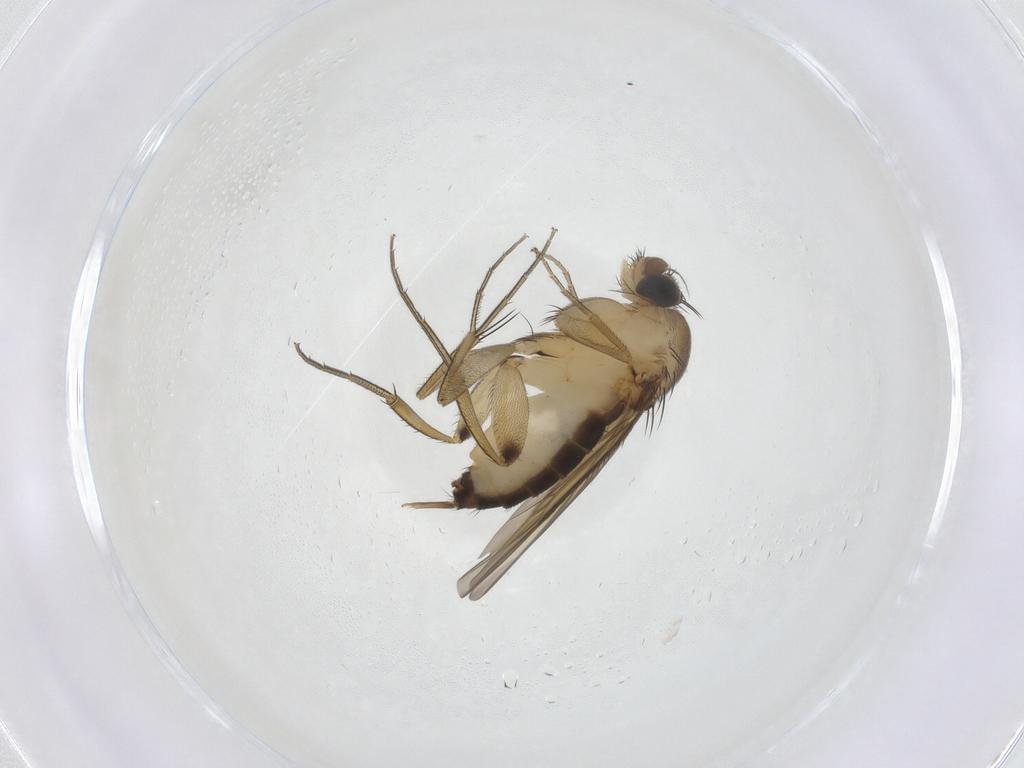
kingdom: Animalia
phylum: Arthropoda
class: Insecta
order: Diptera
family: Phoridae
